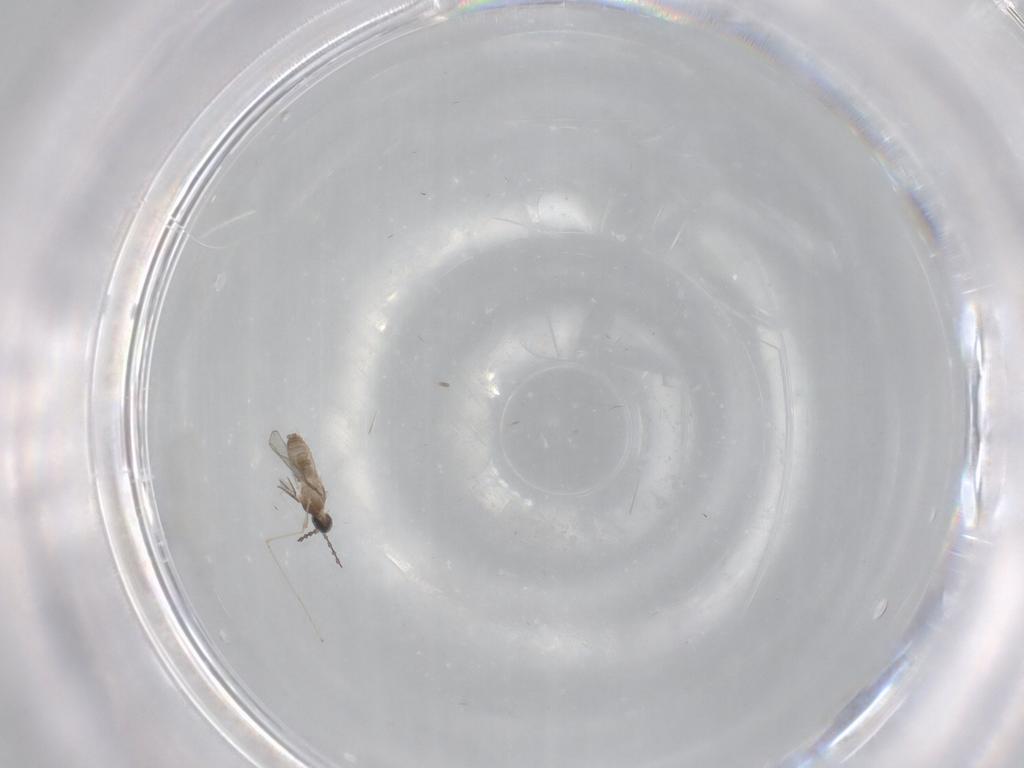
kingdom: Animalia
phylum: Arthropoda
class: Insecta
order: Diptera
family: Cecidomyiidae
